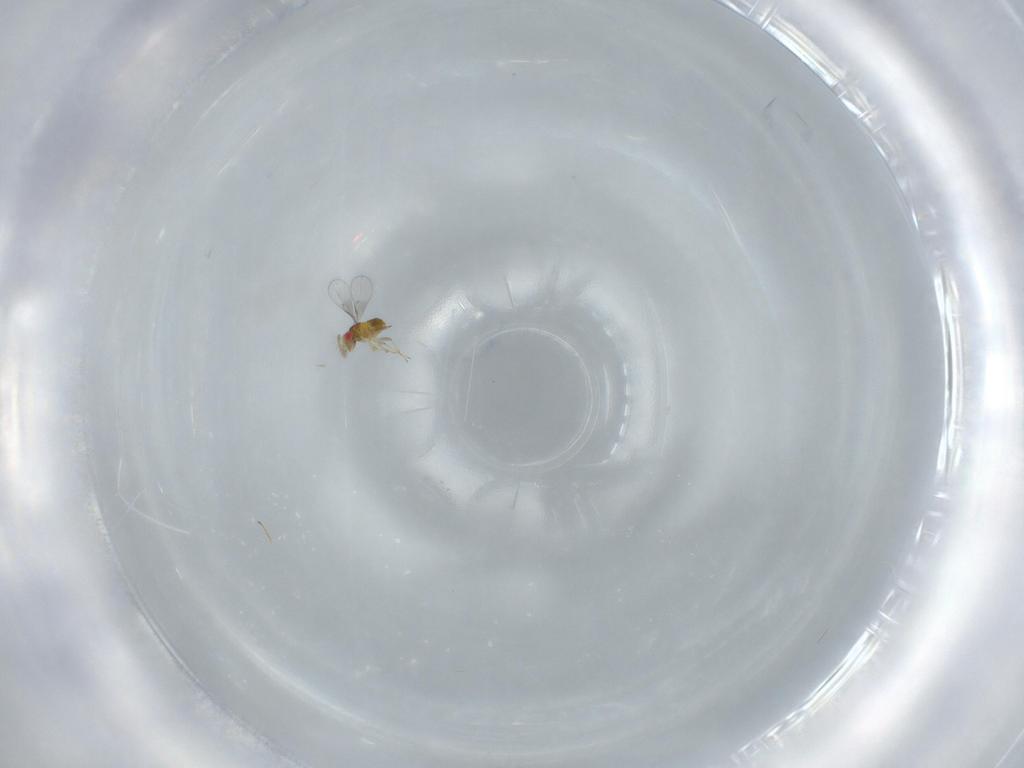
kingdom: Animalia
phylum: Arthropoda
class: Insecta
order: Hymenoptera
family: Trichogrammatidae
